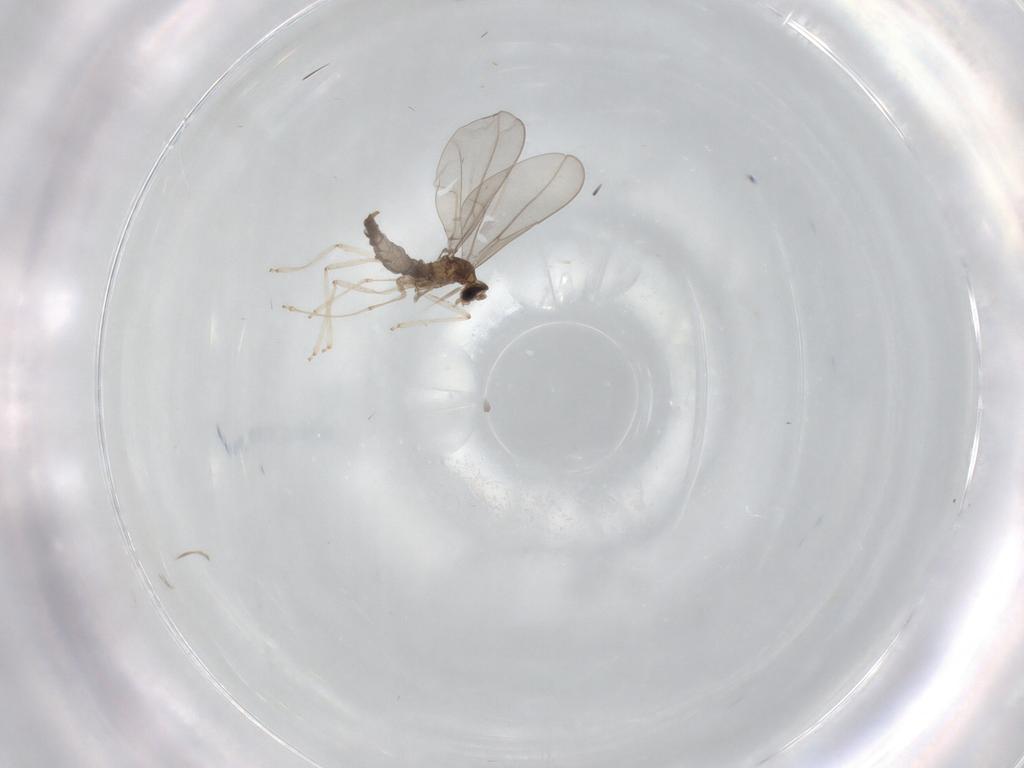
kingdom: Animalia
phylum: Arthropoda
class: Insecta
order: Diptera
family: Cecidomyiidae
